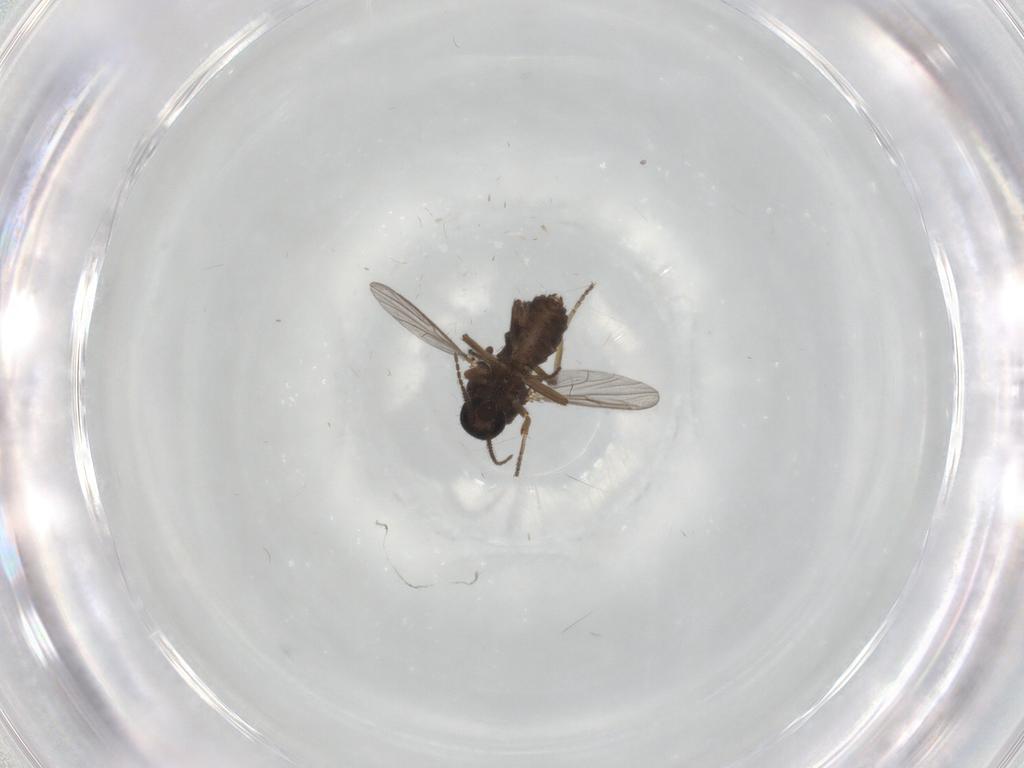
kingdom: Animalia
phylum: Arthropoda
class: Insecta
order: Diptera
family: Ceratopogonidae
